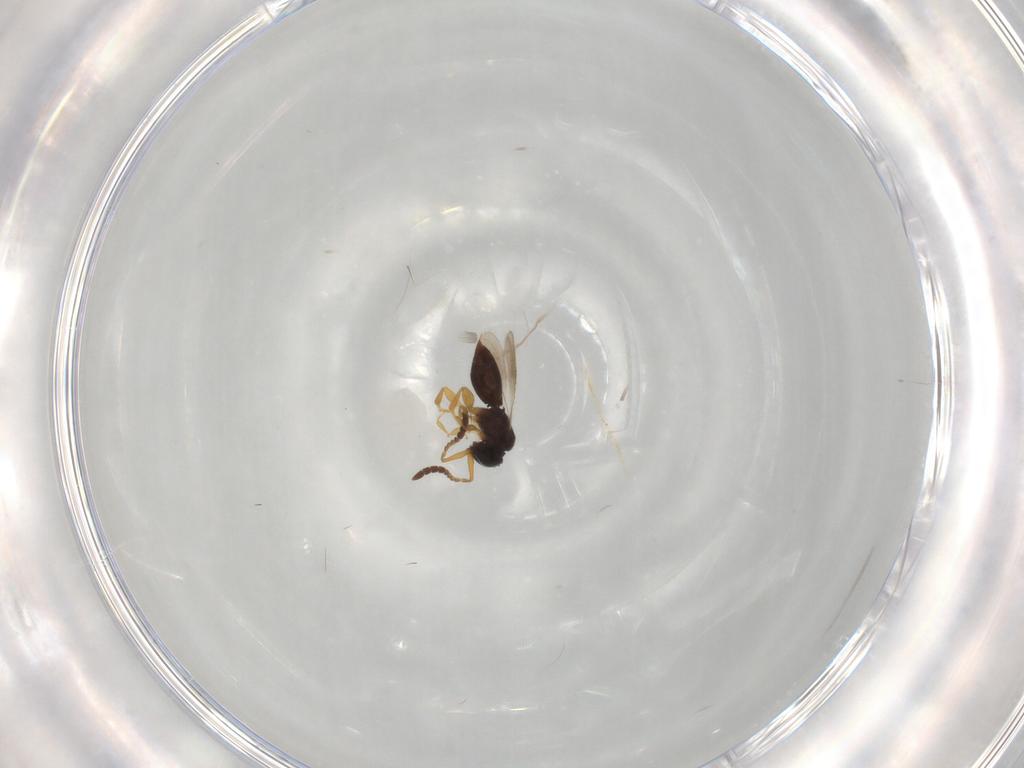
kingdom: Animalia
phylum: Arthropoda
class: Insecta
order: Hymenoptera
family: Ceraphronidae
